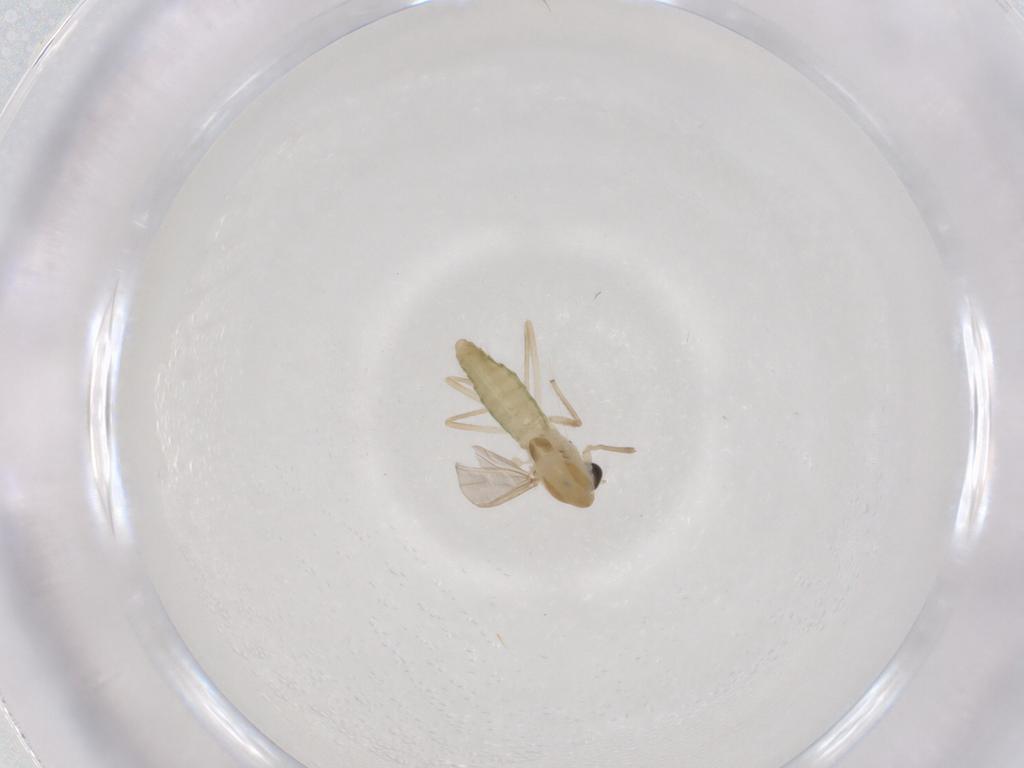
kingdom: Animalia
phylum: Arthropoda
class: Insecta
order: Diptera
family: Chironomidae
